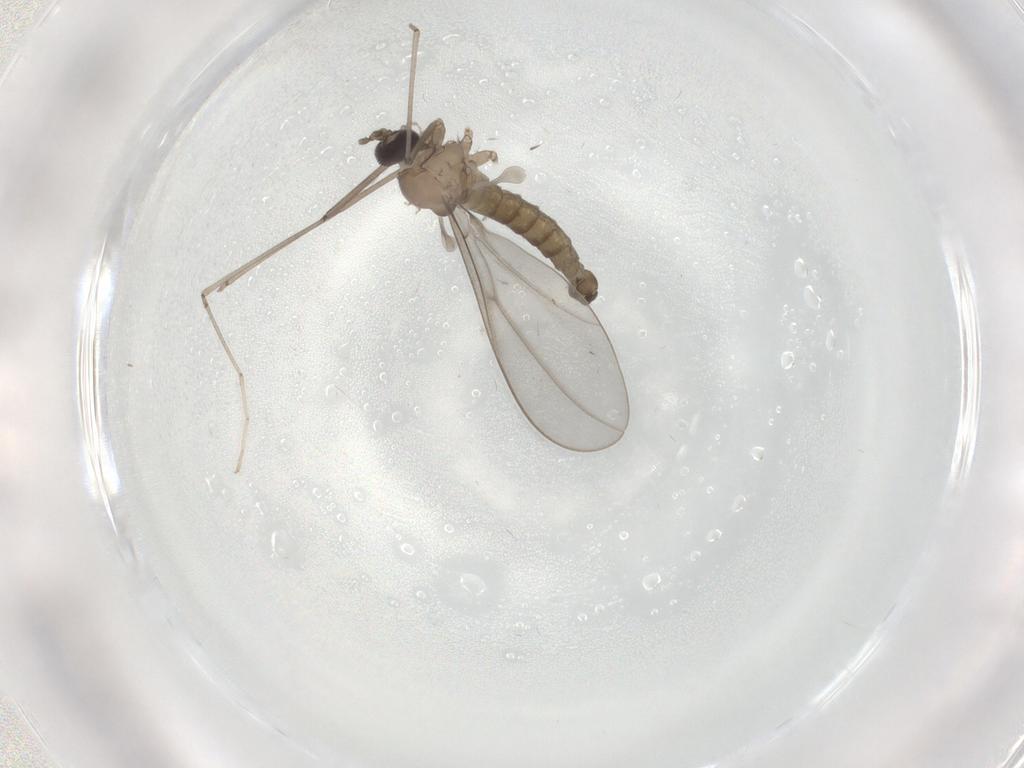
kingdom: Animalia
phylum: Arthropoda
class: Insecta
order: Diptera
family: Cecidomyiidae
